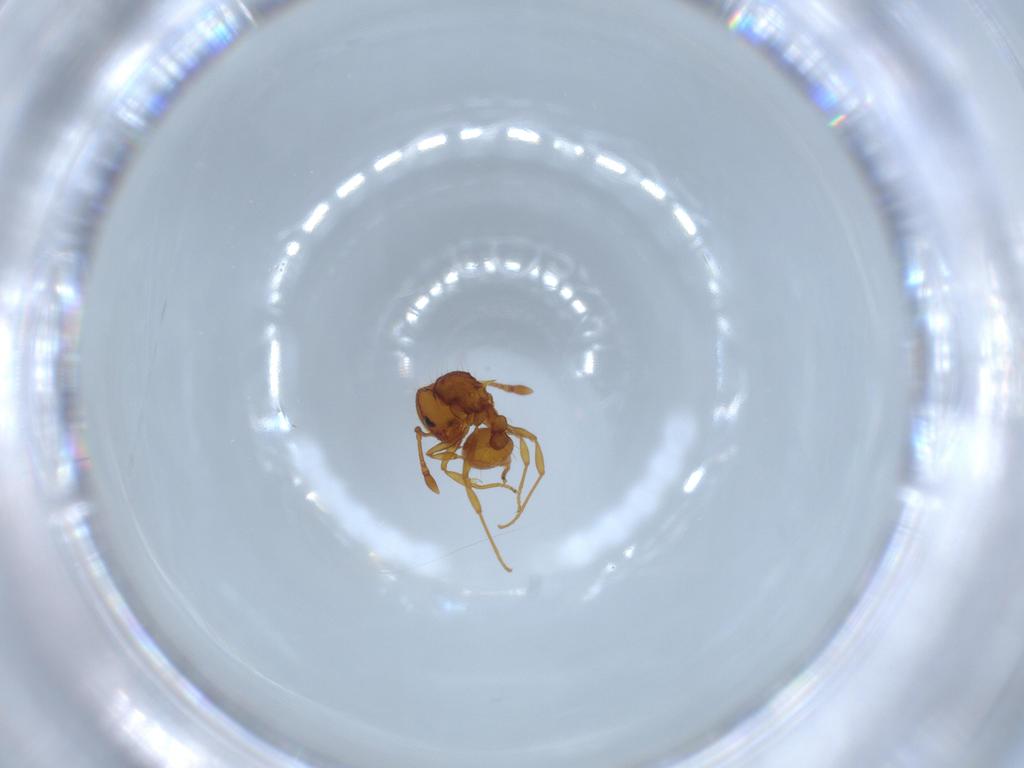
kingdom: Animalia
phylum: Arthropoda
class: Insecta
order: Hymenoptera
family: Formicidae
